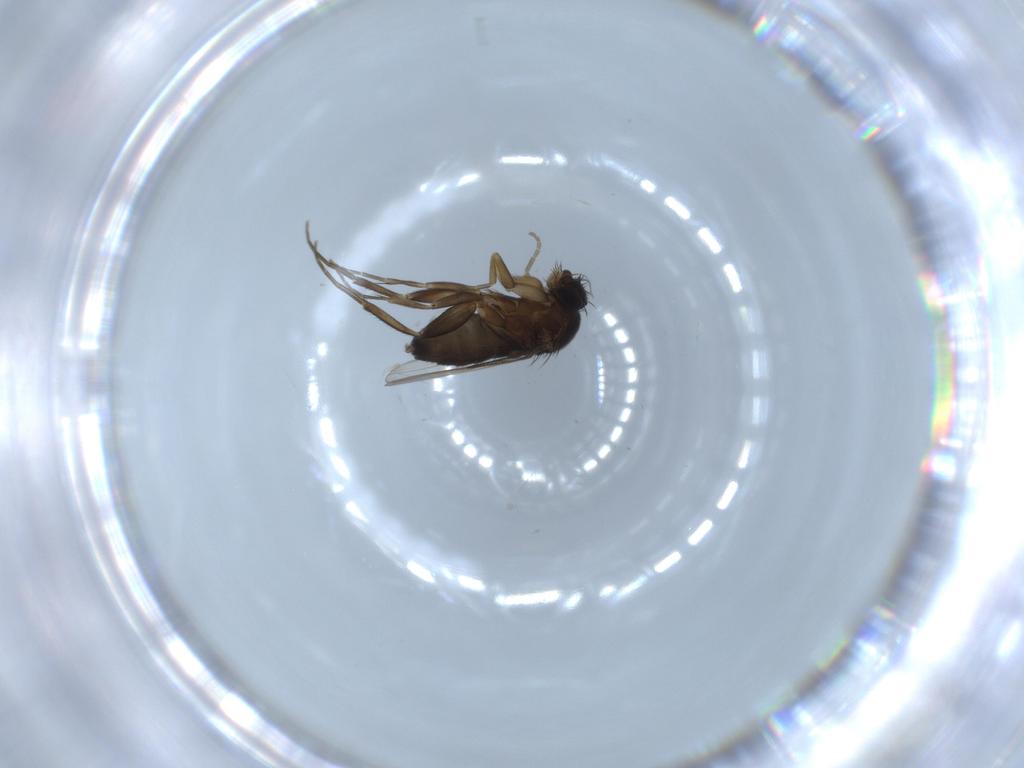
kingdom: Animalia
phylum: Arthropoda
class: Insecta
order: Diptera
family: Phoridae
